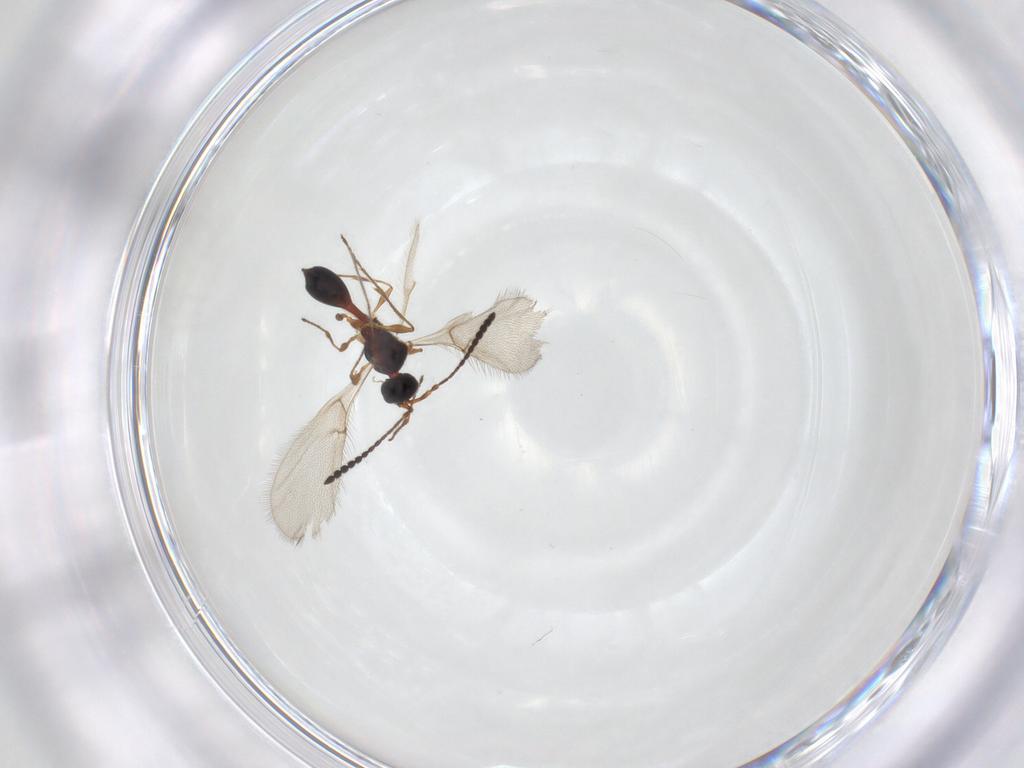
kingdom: Animalia
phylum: Arthropoda
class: Insecta
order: Hymenoptera
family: Diapriidae
